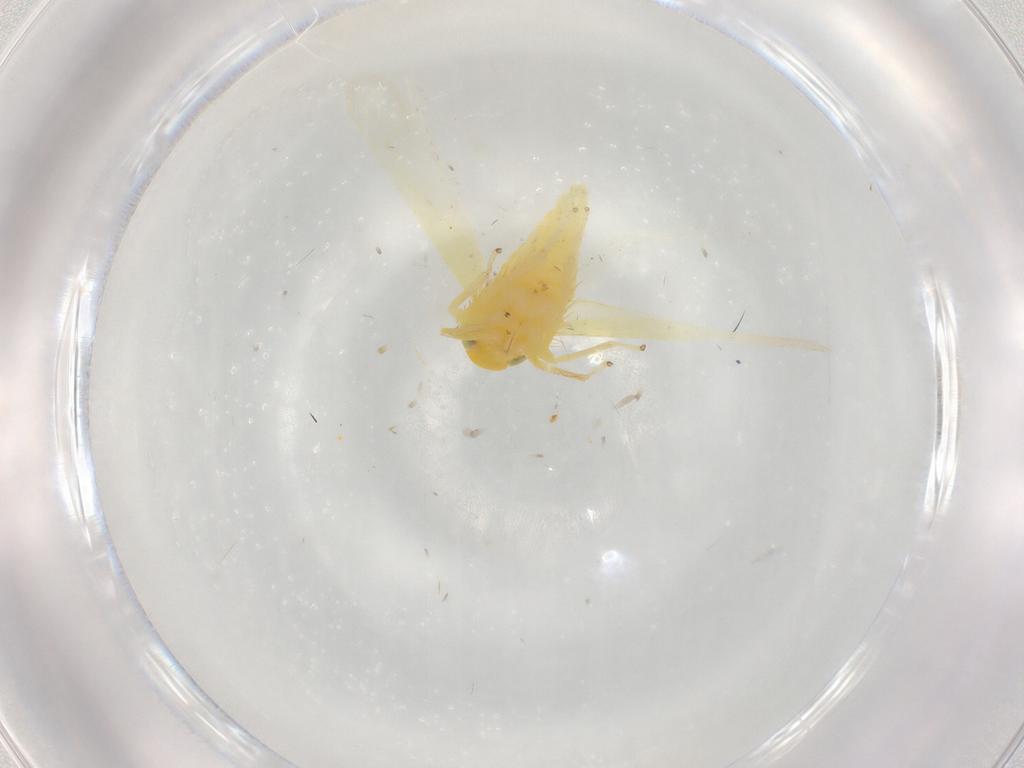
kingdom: Animalia
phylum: Arthropoda
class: Insecta
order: Hemiptera
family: Cicadellidae
